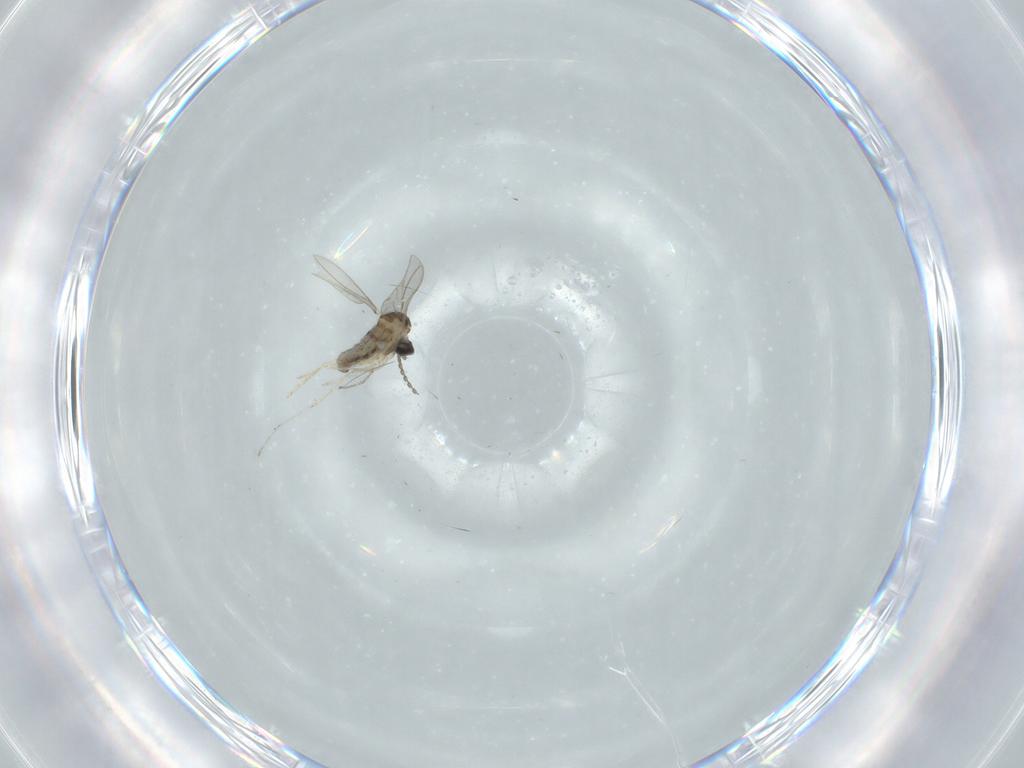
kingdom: Animalia
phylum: Arthropoda
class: Insecta
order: Diptera
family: Cecidomyiidae
